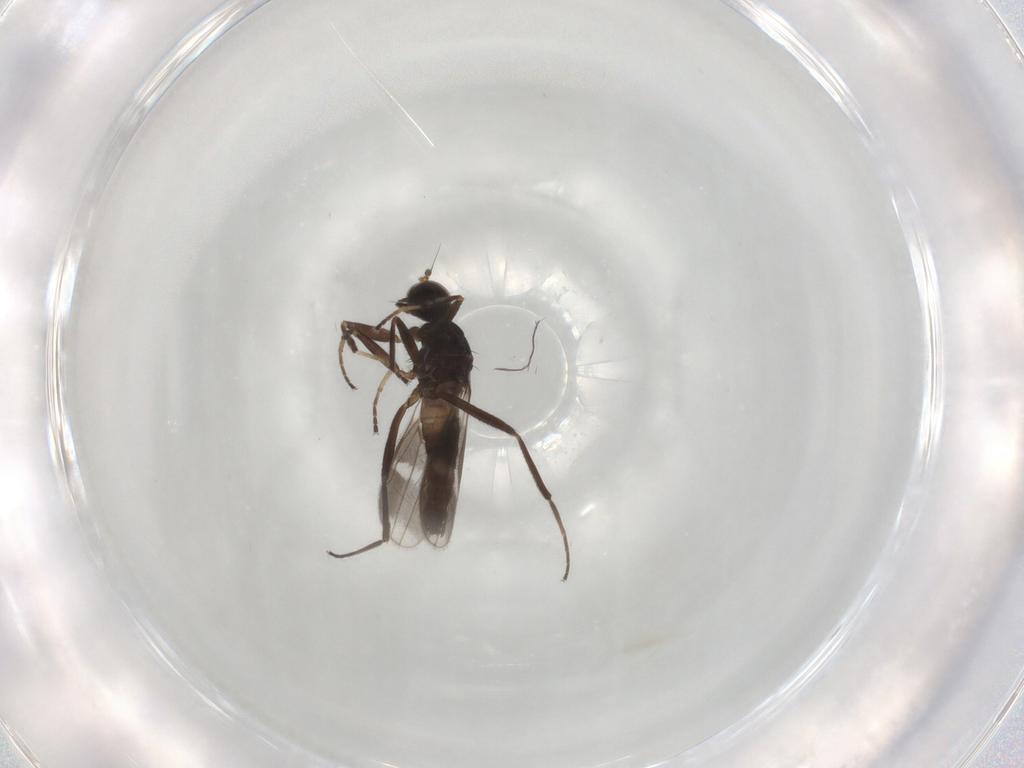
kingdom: Animalia
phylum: Arthropoda
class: Insecta
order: Diptera
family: Hybotidae
